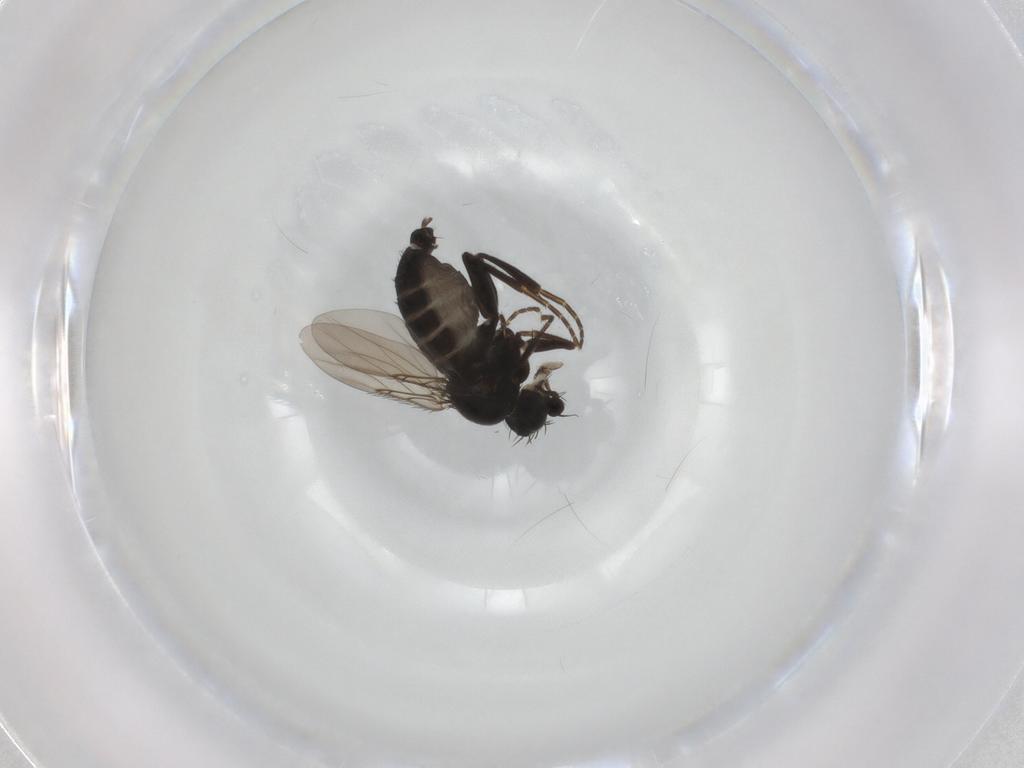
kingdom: Animalia
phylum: Arthropoda
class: Insecta
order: Diptera
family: Phoridae
